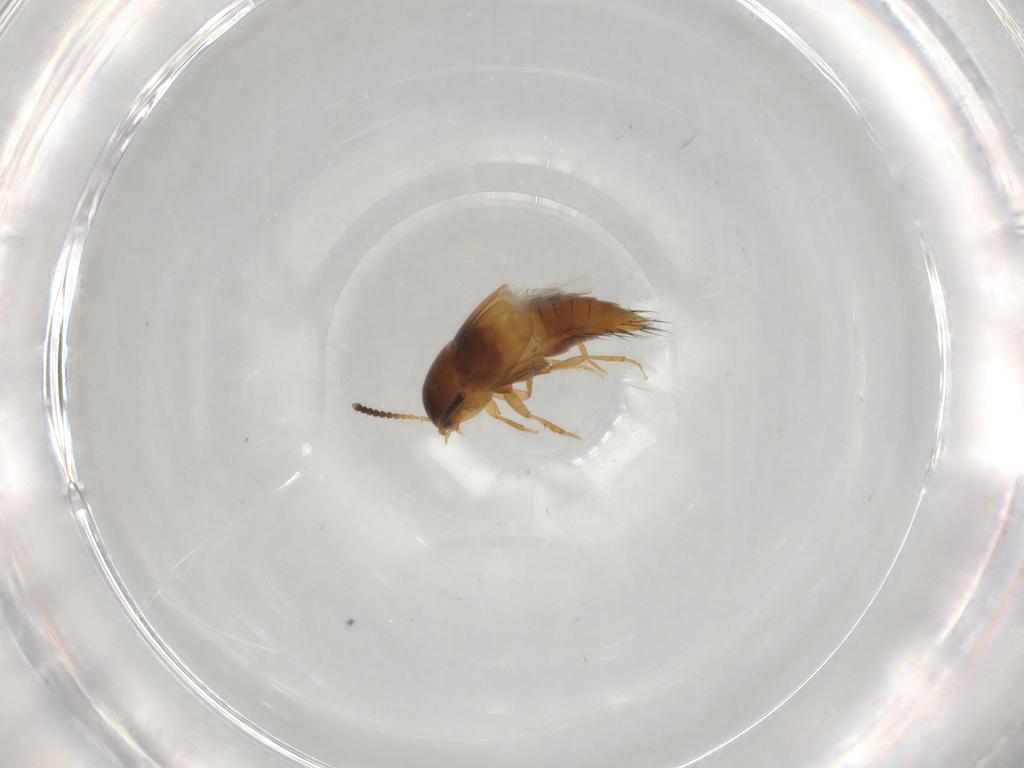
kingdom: Animalia
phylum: Arthropoda
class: Insecta
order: Coleoptera
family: Staphylinidae
